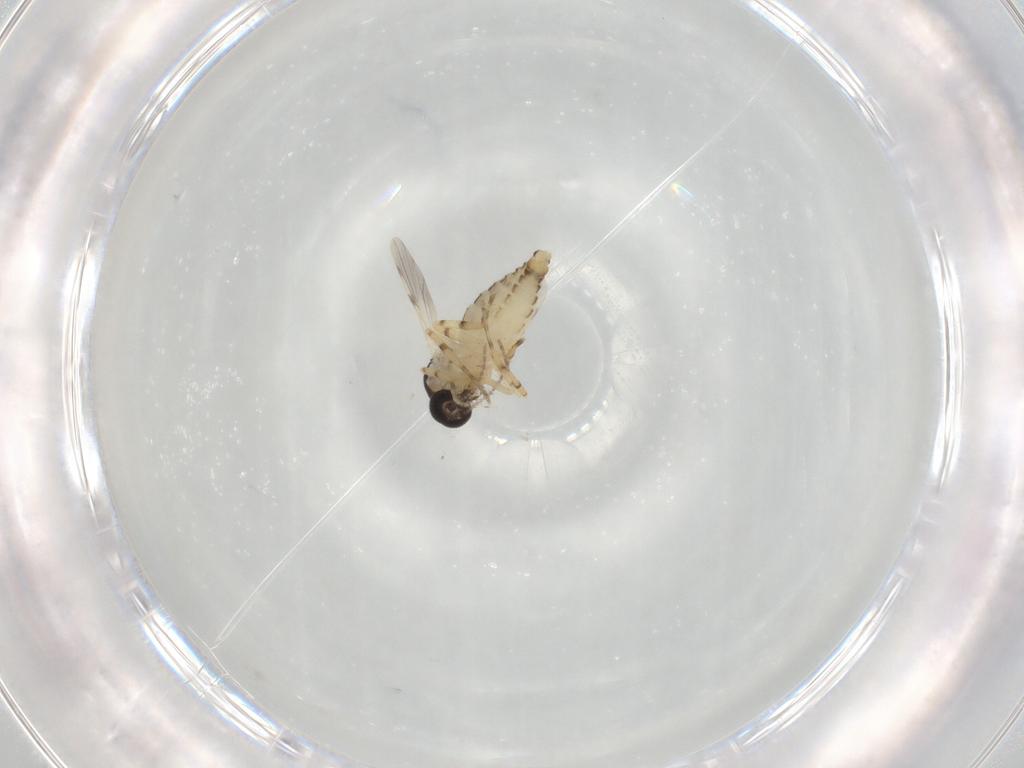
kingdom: Animalia
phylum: Arthropoda
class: Insecta
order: Diptera
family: Ceratopogonidae
